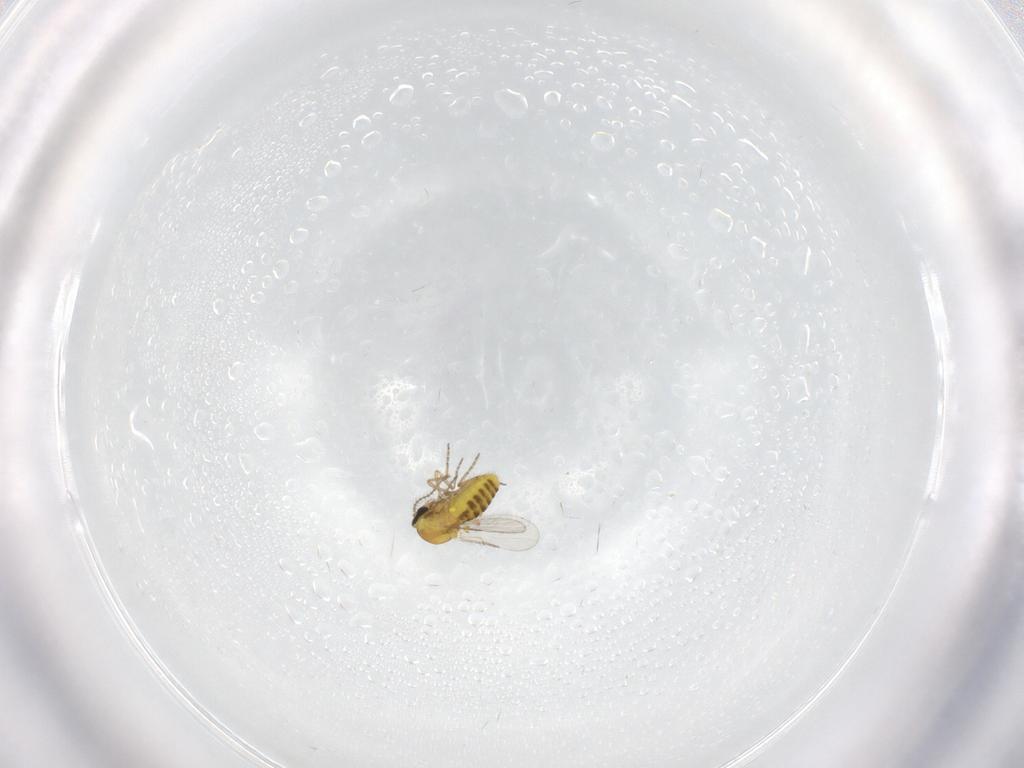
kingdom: Animalia
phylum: Arthropoda
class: Insecta
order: Diptera
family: Ceratopogonidae
